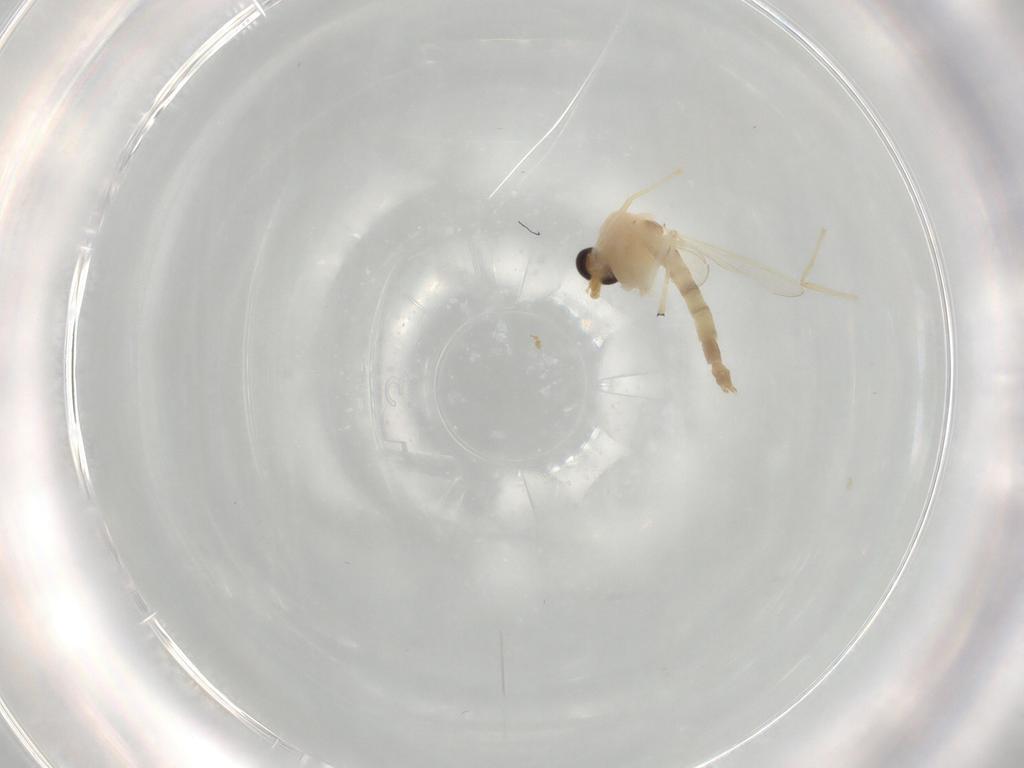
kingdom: Animalia
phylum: Arthropoda
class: Insecta
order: Diptera
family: Chironomidae
